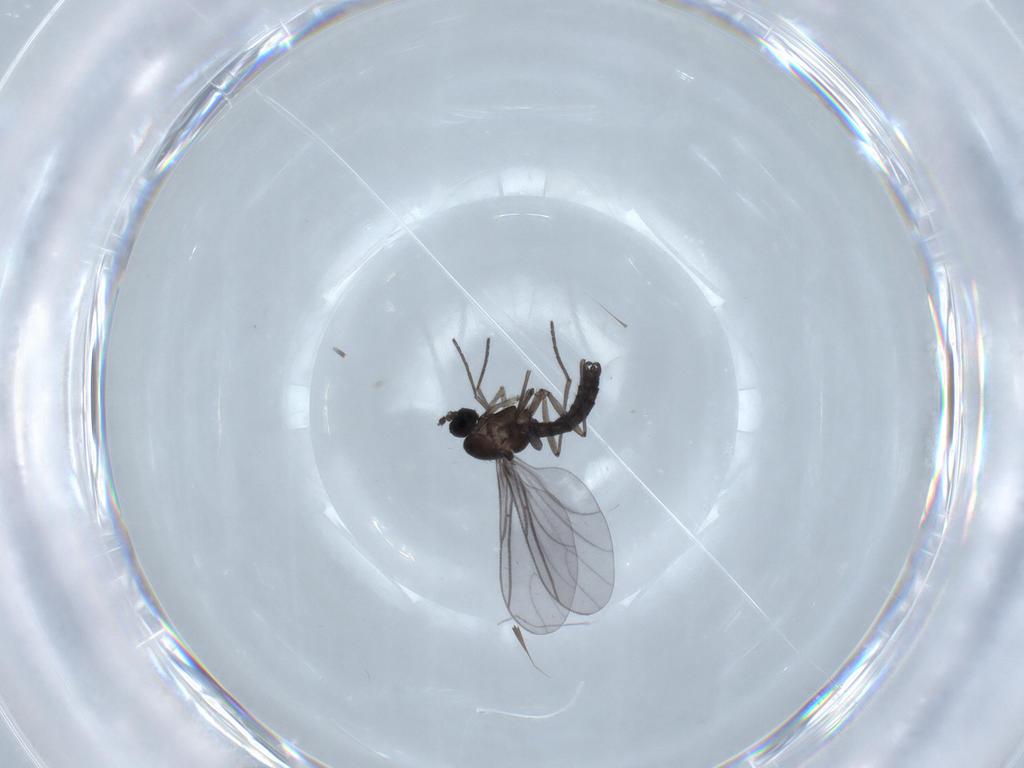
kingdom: Animalia
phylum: Arthropoda
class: Insecta
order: Diptera
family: Sciaridae
